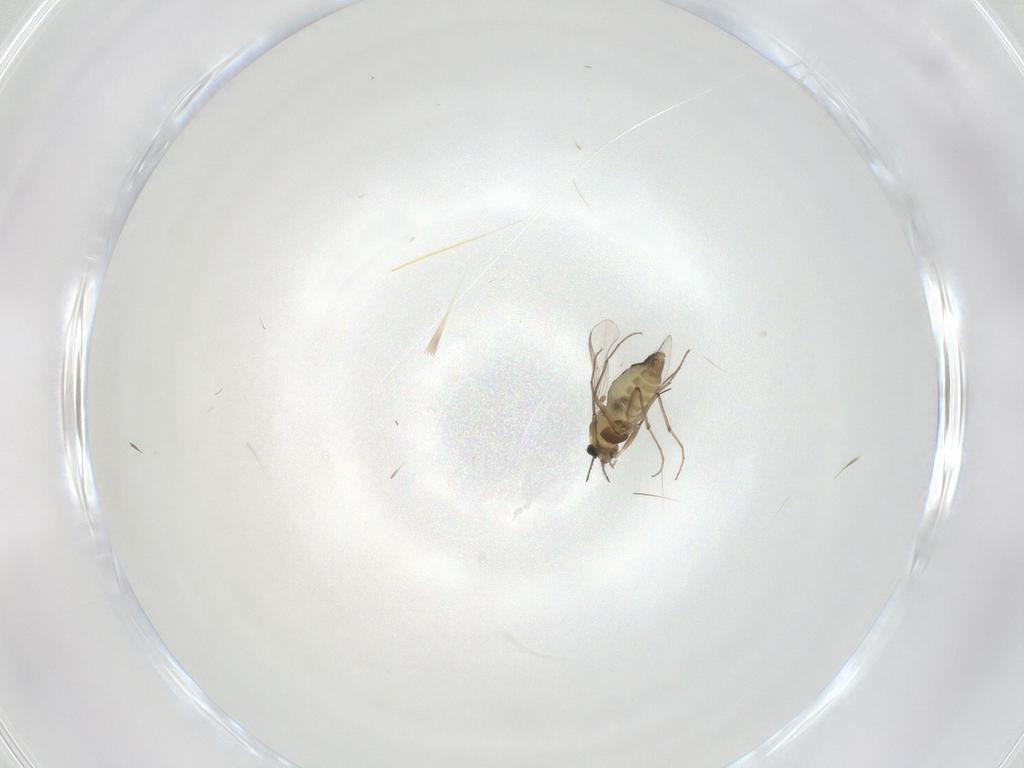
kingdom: Animalia
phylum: Arthropoda
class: Insecta
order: Diptera
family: Chironomidae
